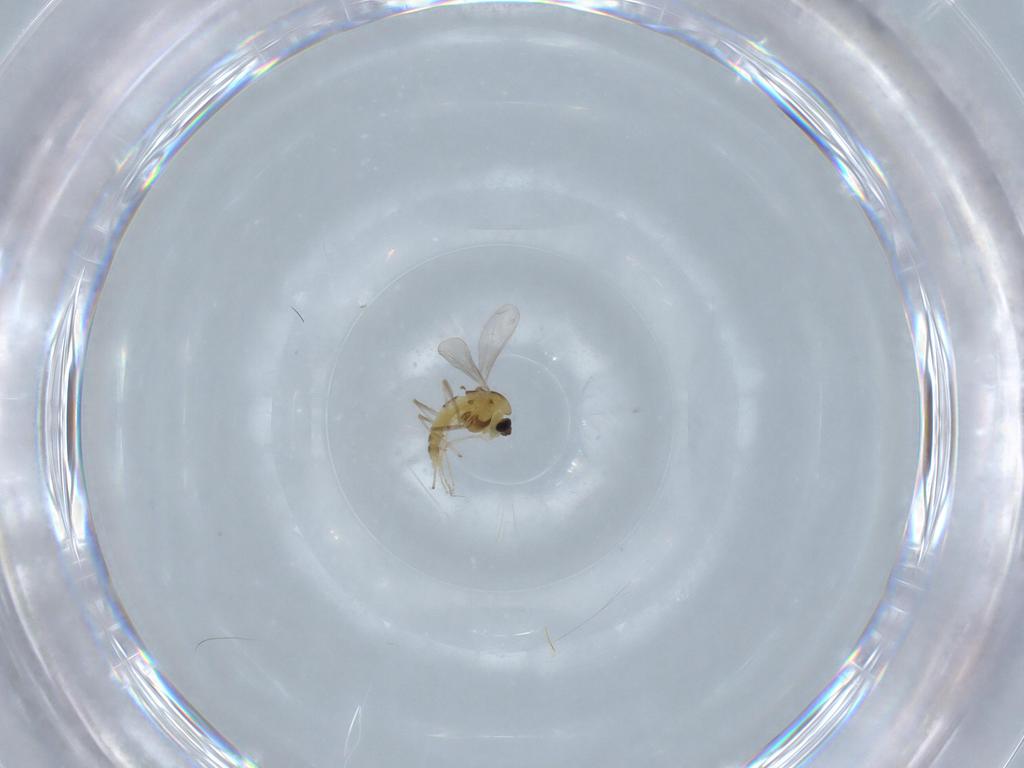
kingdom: Animalia
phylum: Arthropoda
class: Insecta
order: Diptera
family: Chironomidae
